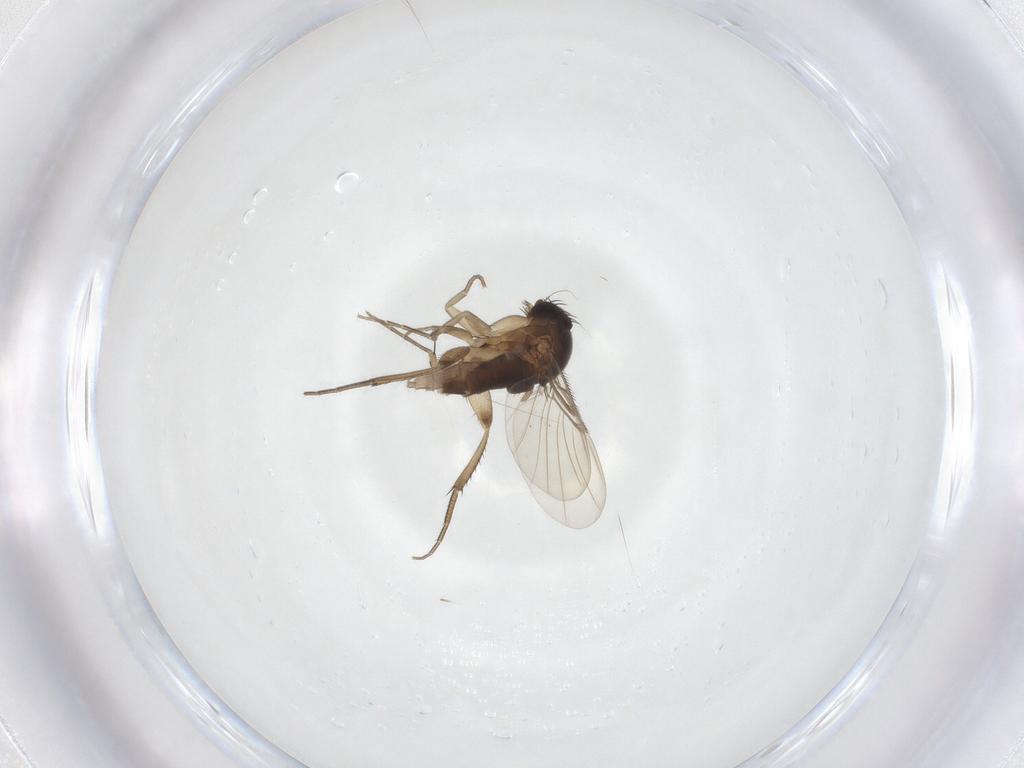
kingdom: Animalia
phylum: Arthropoda
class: Insecta
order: Diptera
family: Phoridae
